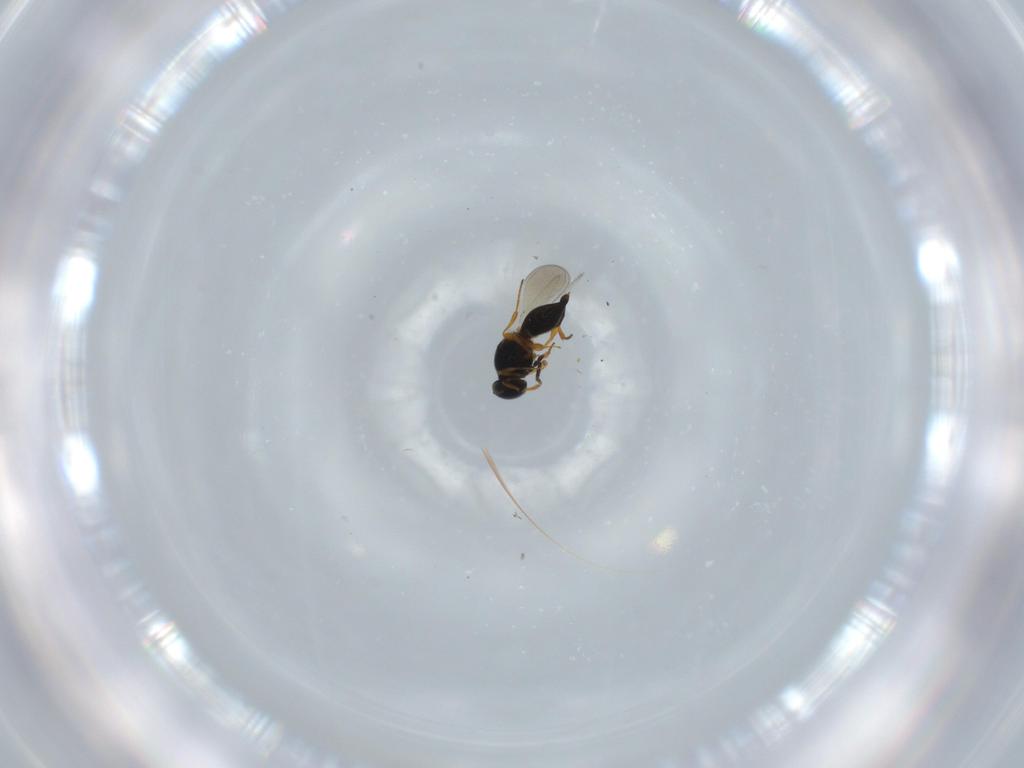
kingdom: Animalia
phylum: Arthropoda
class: Insecta
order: Hymenoptera
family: Platygastridae
